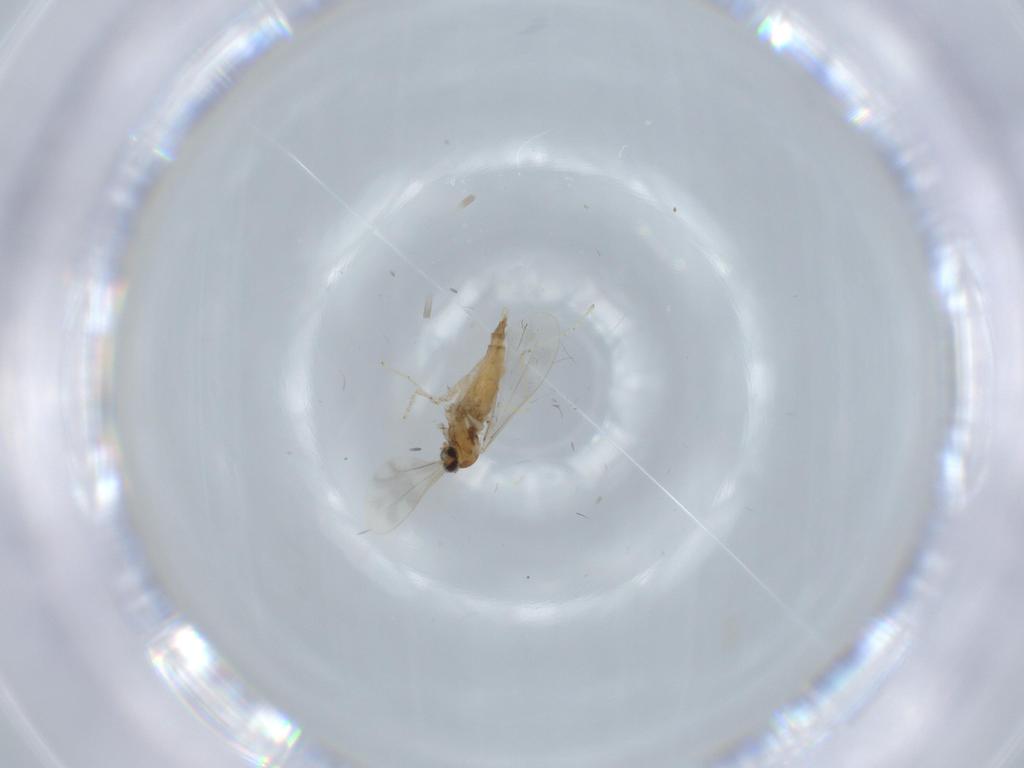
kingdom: Animalia
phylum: Arthropoda
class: Insecta
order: Diptera
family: Cecidomyiidae
